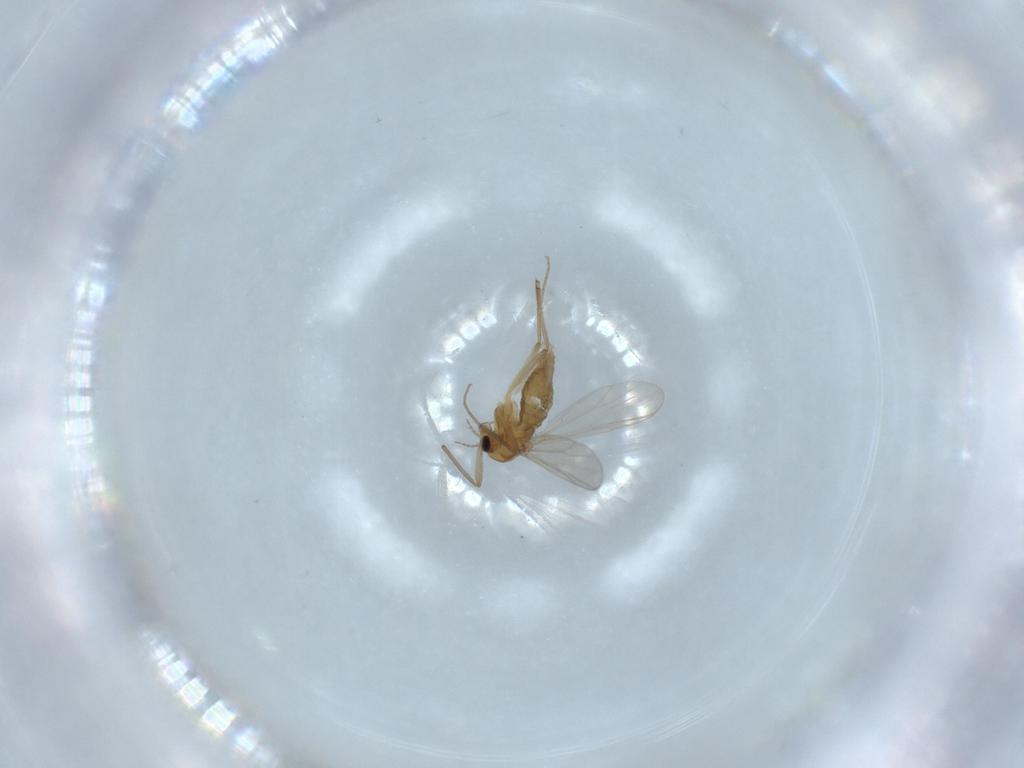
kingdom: Animalia
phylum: Arthropoda
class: Insecta
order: Diptera
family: Chironomidae
